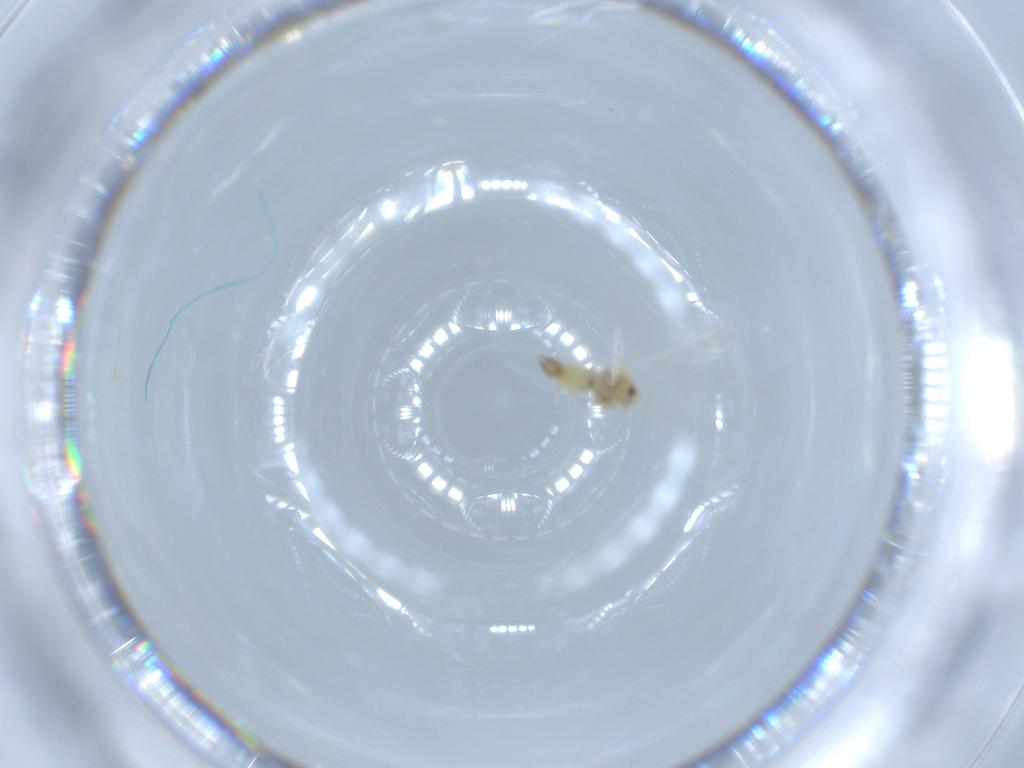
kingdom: Animalia
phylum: Arthropoda
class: Insecta
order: Hemiptera
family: Aleyrodidae
